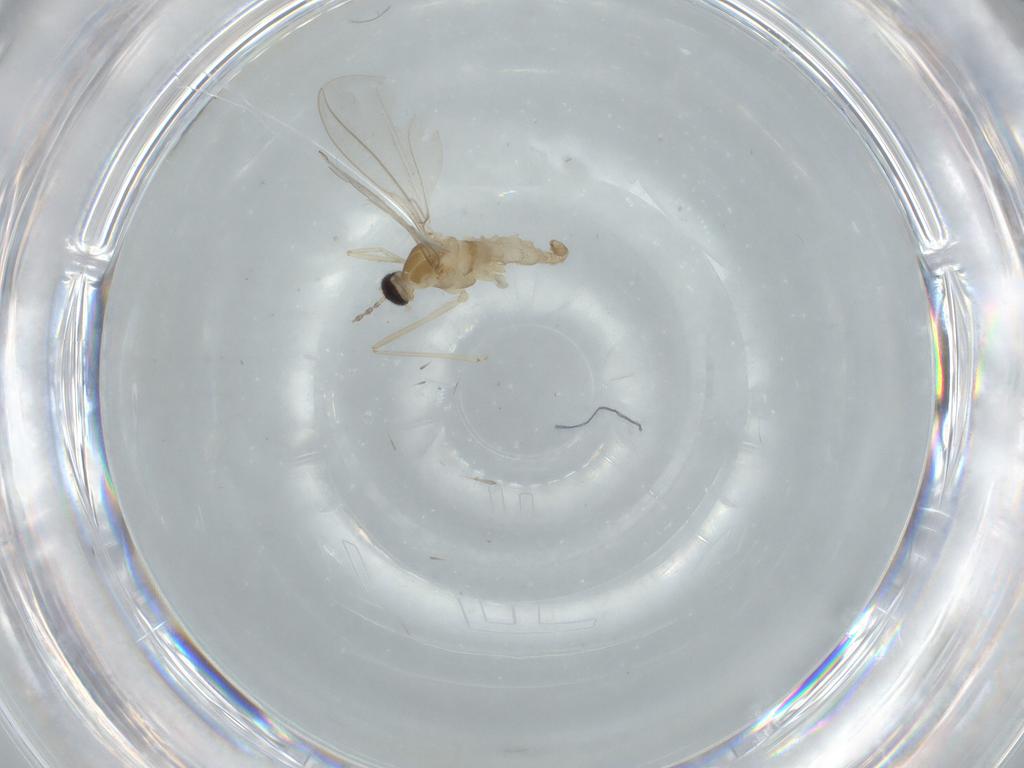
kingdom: Animalia
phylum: Arthropoda
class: Insecta
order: Diptera
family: Cecidomyiidae
